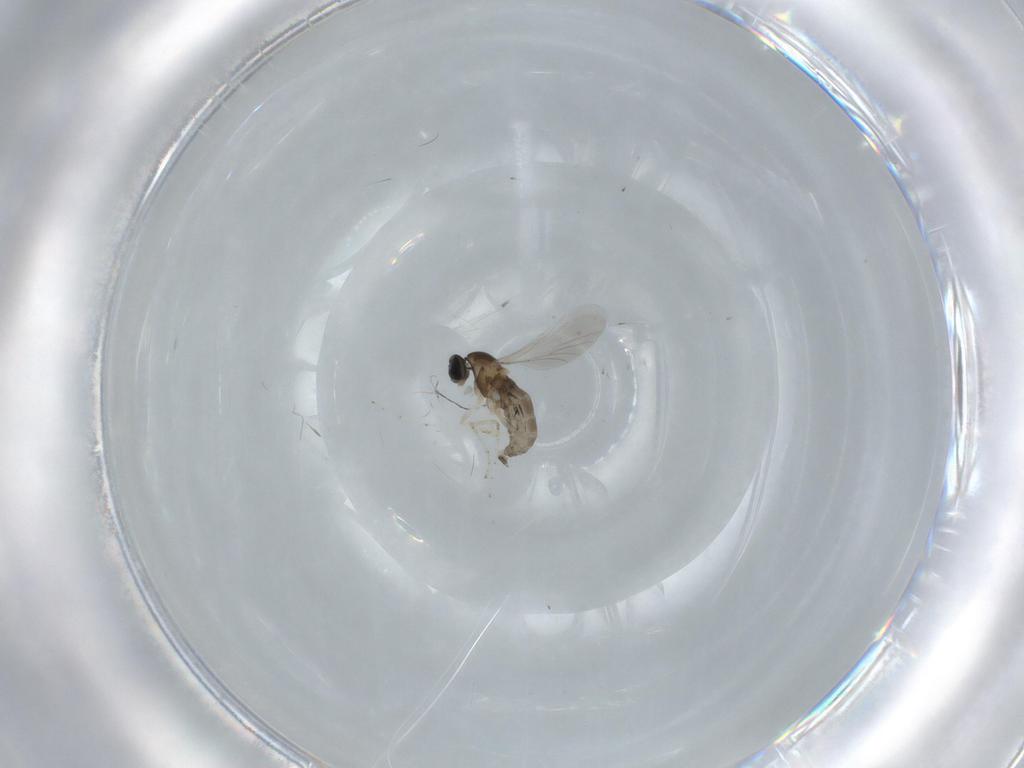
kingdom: Animalia
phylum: Arthropoda
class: Insecta
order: Diptera
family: Cecidomyiidae
